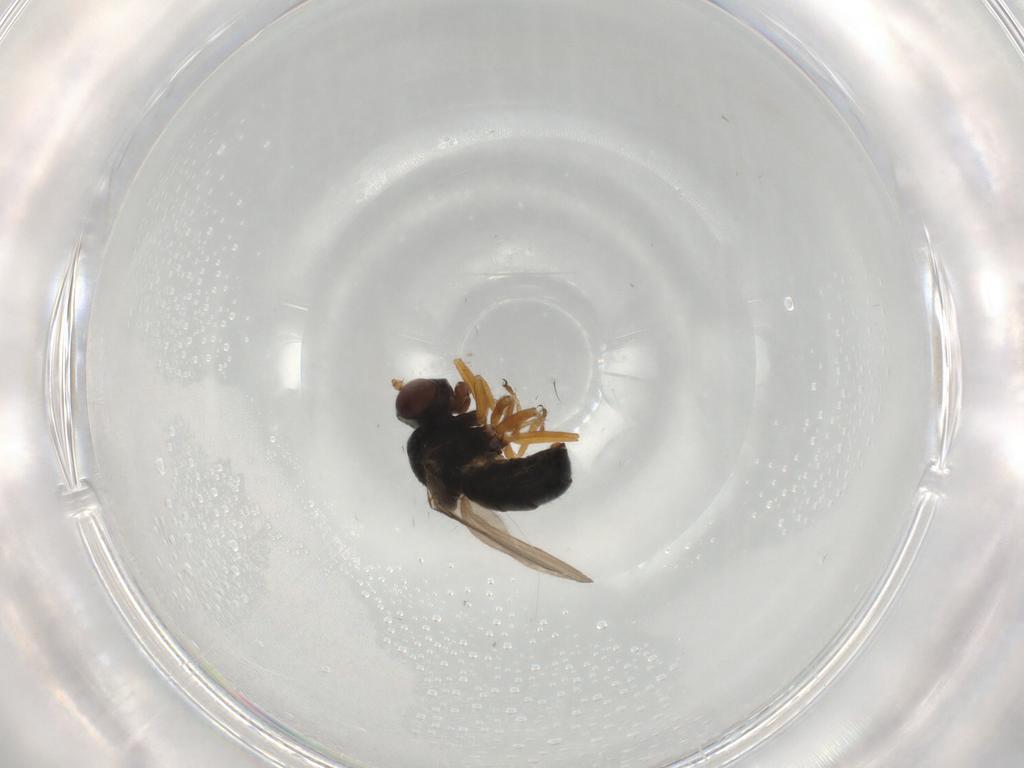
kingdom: Animalia
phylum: Arthropoda
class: Insecta
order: Diptera
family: Ephydridae
